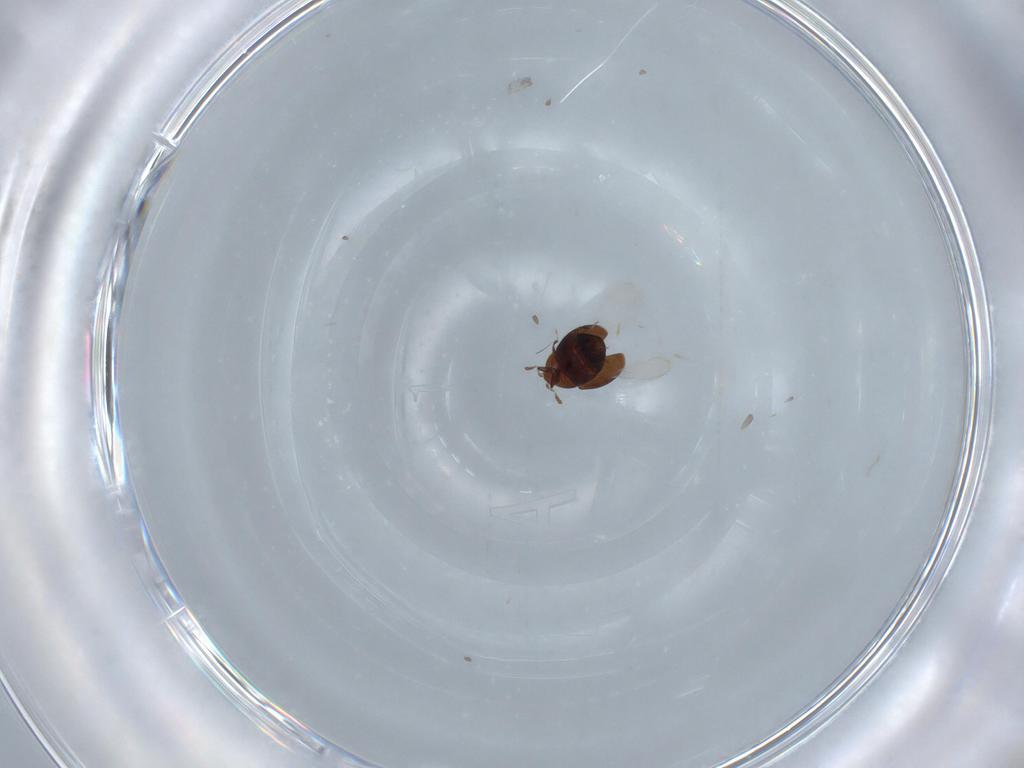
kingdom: Animalia
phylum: Arthropoda
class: Insecta
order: Coleoptera
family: Corylophidae
